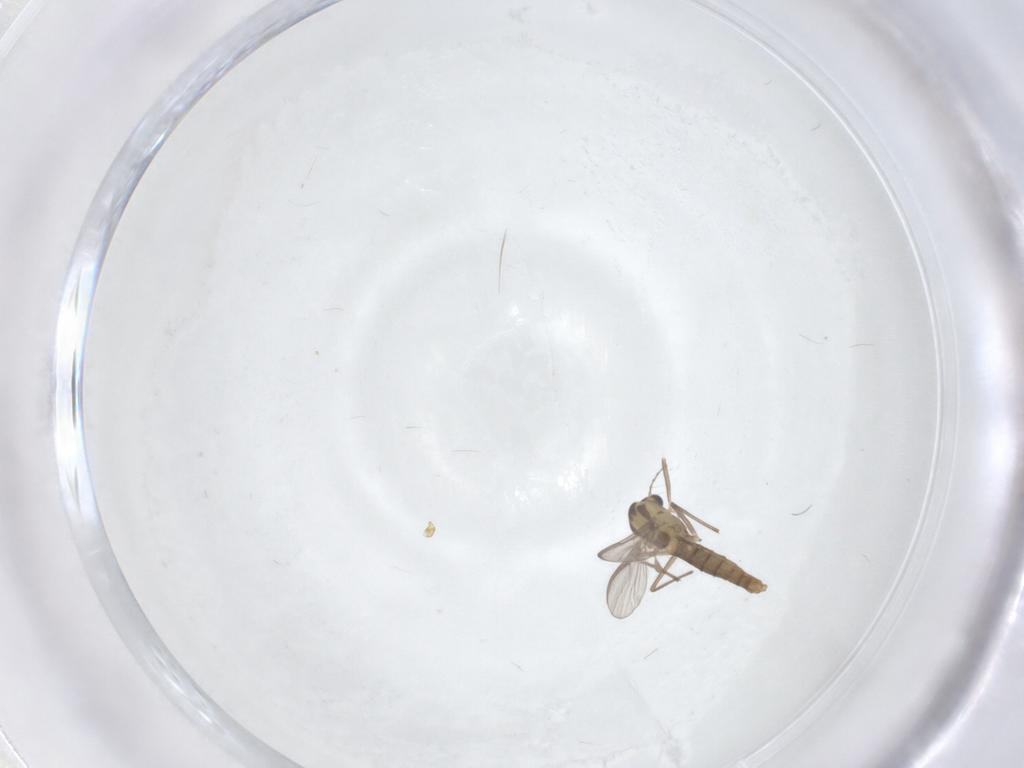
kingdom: Animalia
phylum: Arthropoda
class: Insecta
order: Diptera
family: Chironomidae
